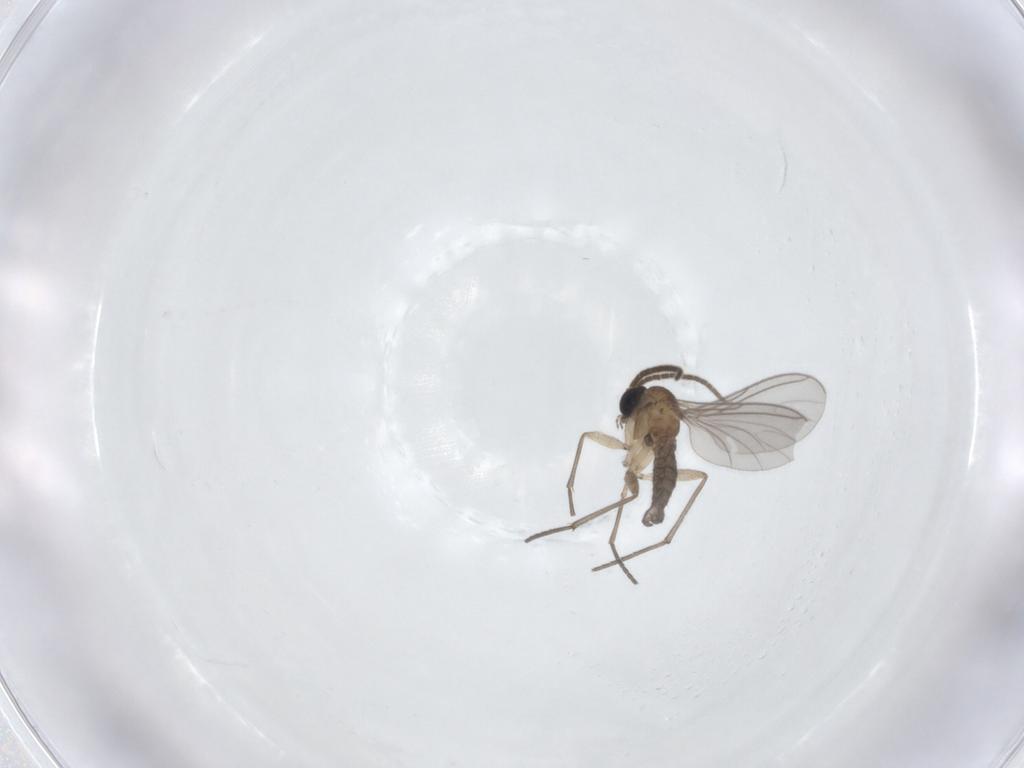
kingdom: Animalia
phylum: Arthropoda
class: Insecta
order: Diptera
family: Sciaridae
